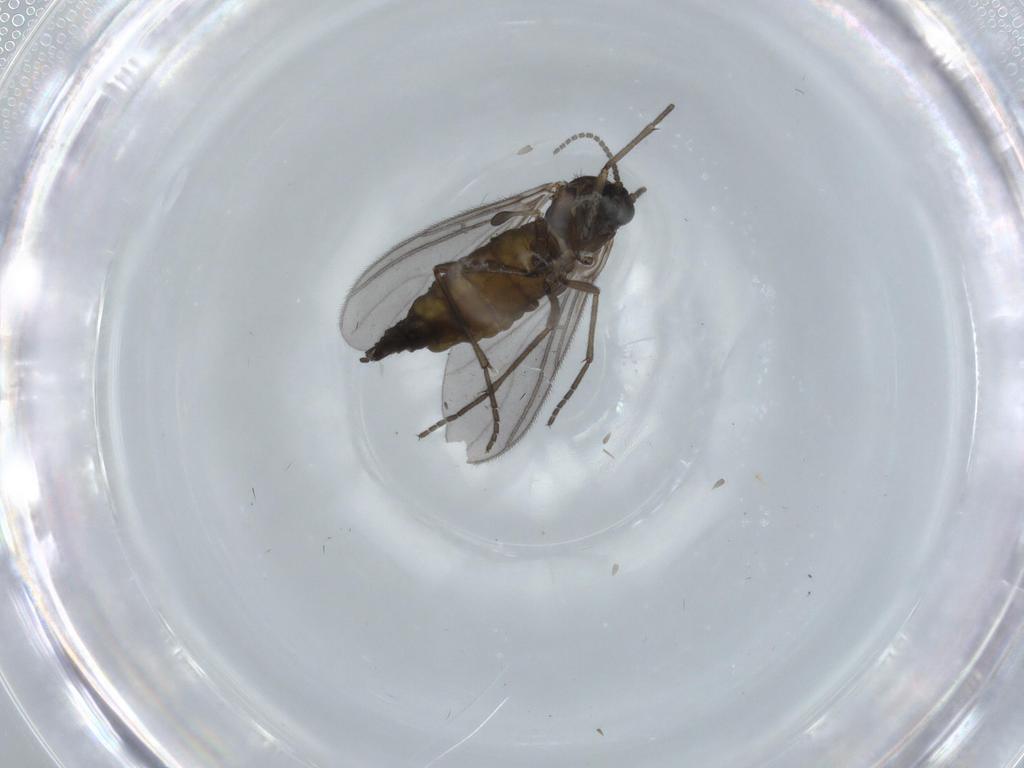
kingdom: Animalia
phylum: Arthropoda
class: Insecta
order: Diptera
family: Sciaridae
